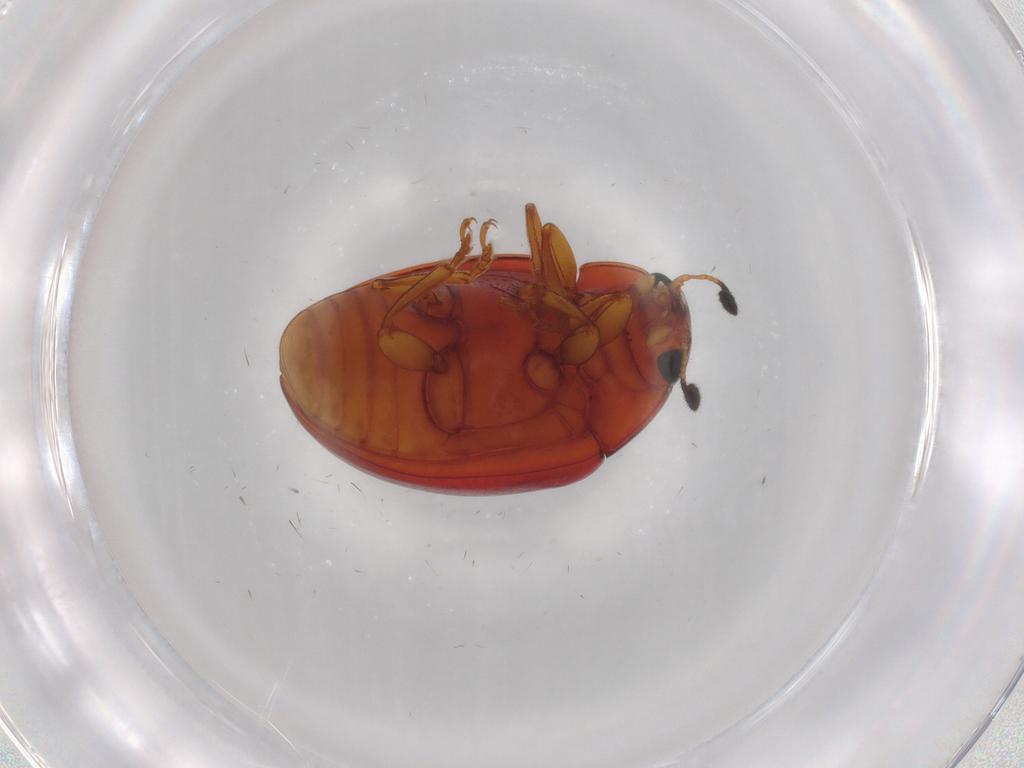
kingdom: Animalia
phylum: Arthropoda
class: Insecta
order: Coleoptera
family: Erotylidae
